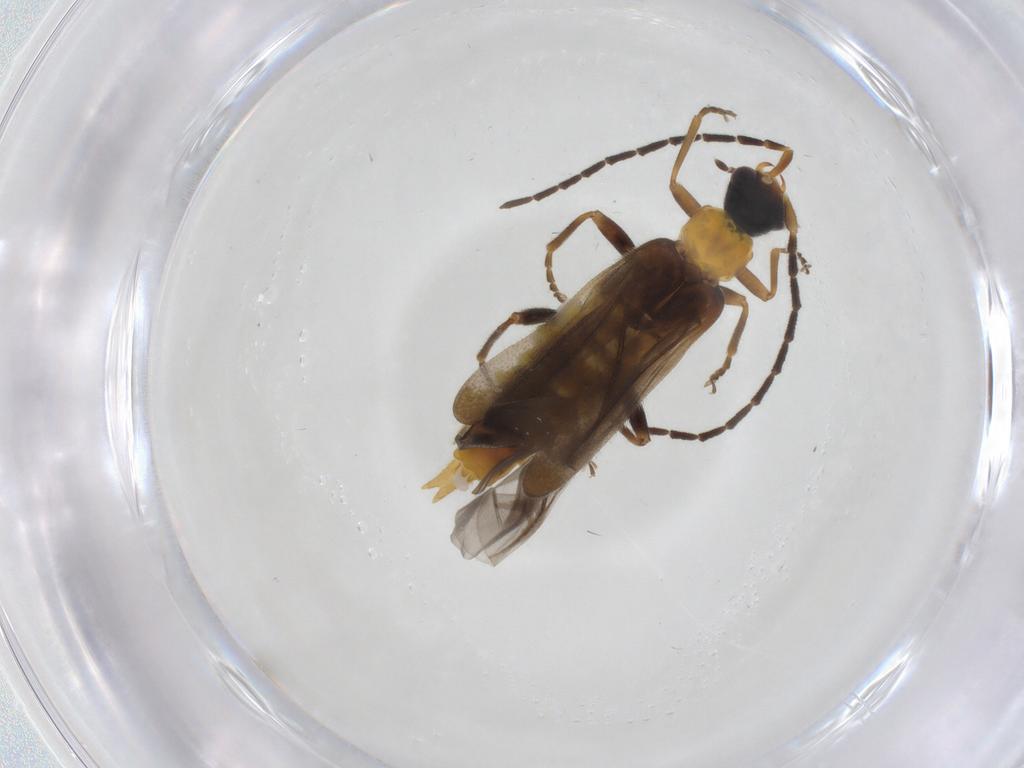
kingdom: Animalia
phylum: Arthropoda
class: Insecta
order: Coleoptera
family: Cantharidae
